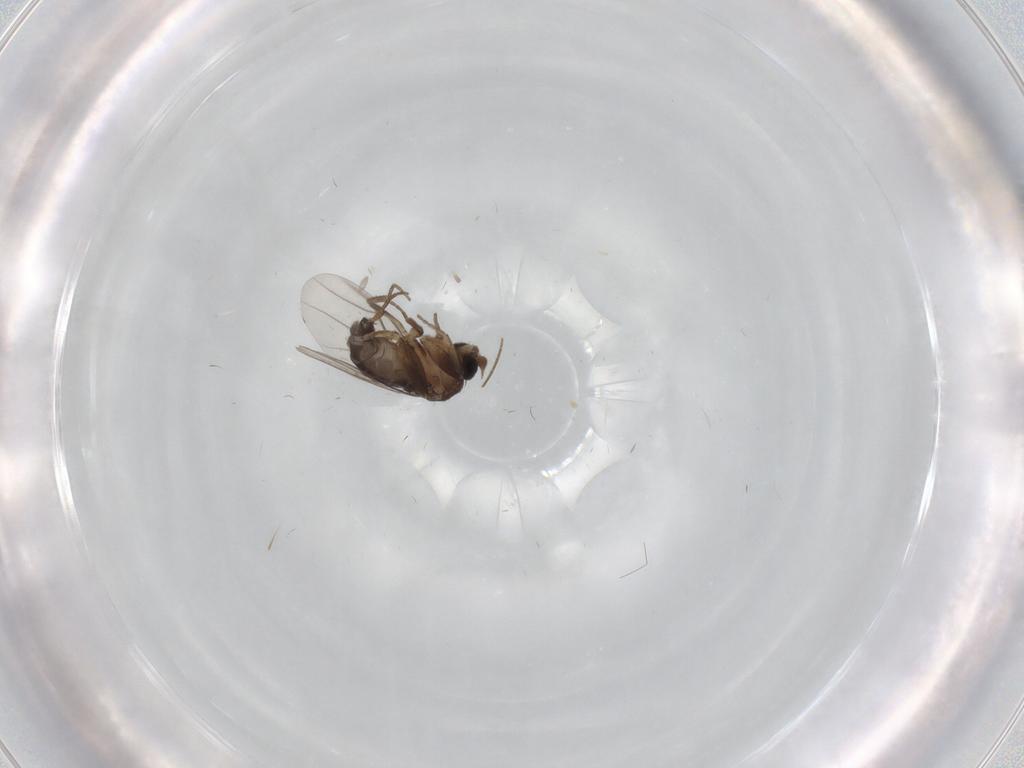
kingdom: Animalia
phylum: Arthropoda
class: Insecta
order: Diptera
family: Phoridae
